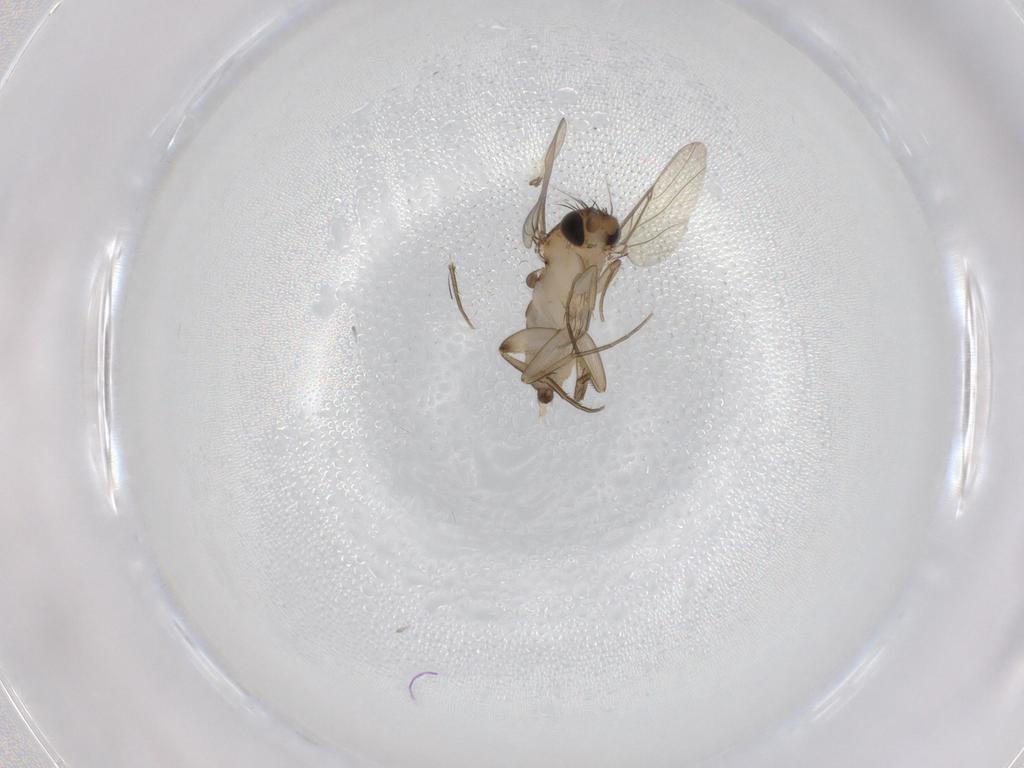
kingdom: Animalia
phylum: Arthropoda
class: Insecta
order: Diptera
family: Phoridae
